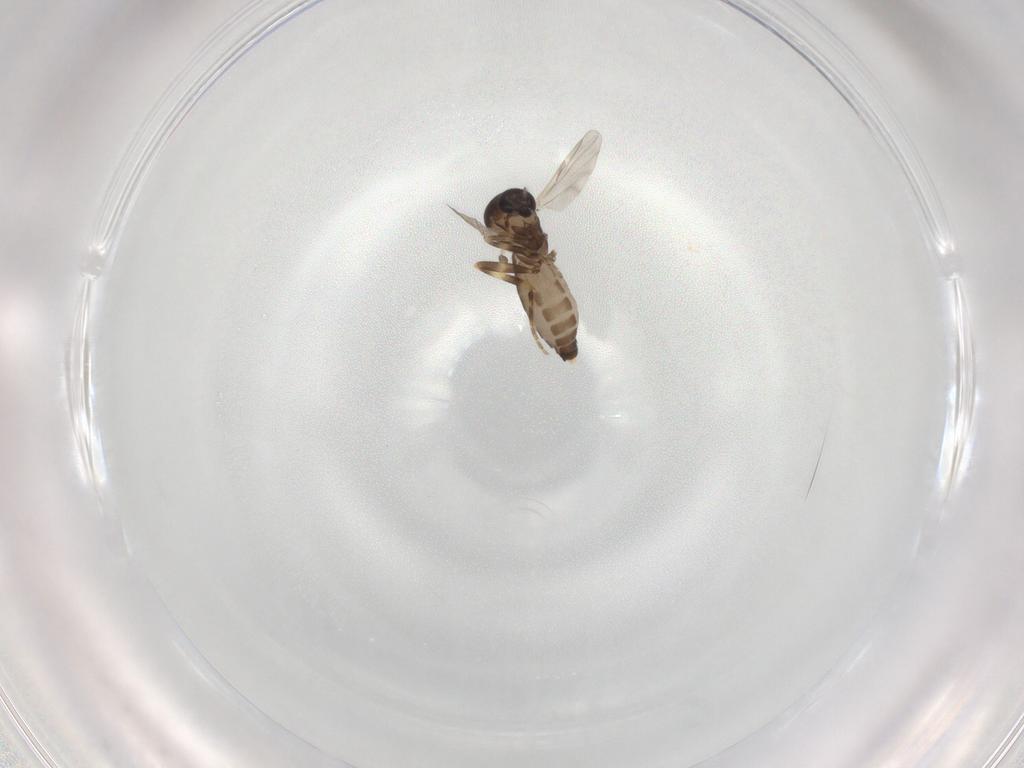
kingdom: Animalia
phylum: Arthropoda
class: Insecta
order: Diptera
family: Ceratopogonidae
